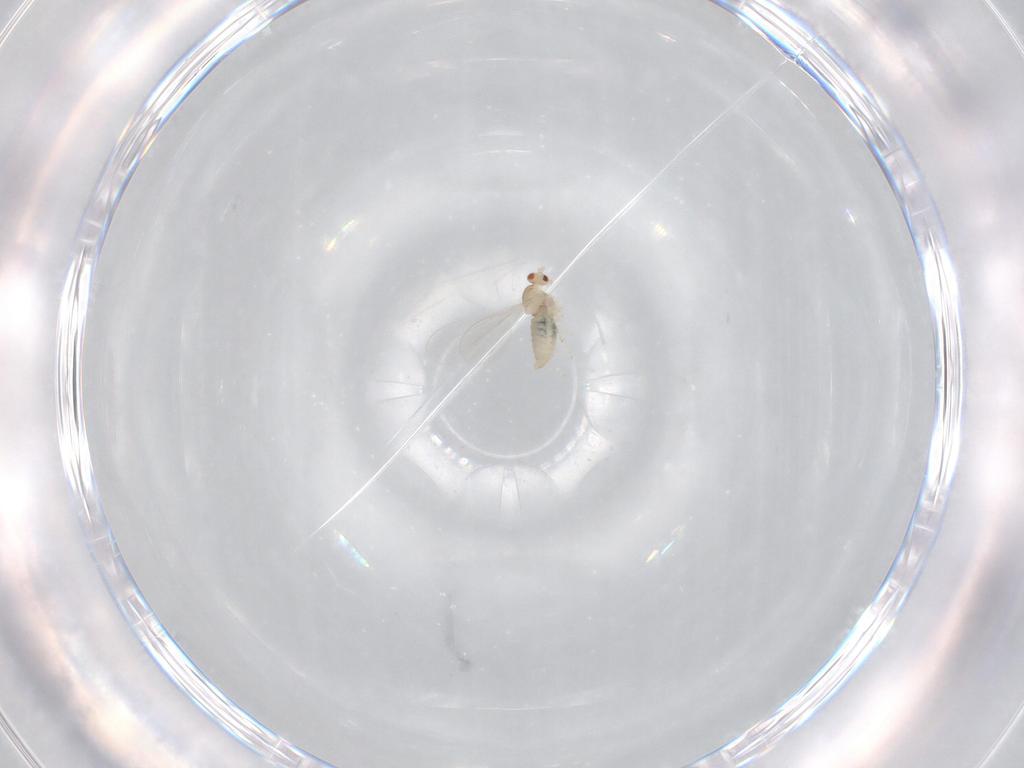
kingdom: Animalia
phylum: Arthropoda
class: Insecta
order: Diptera
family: Cecidomyiidae
